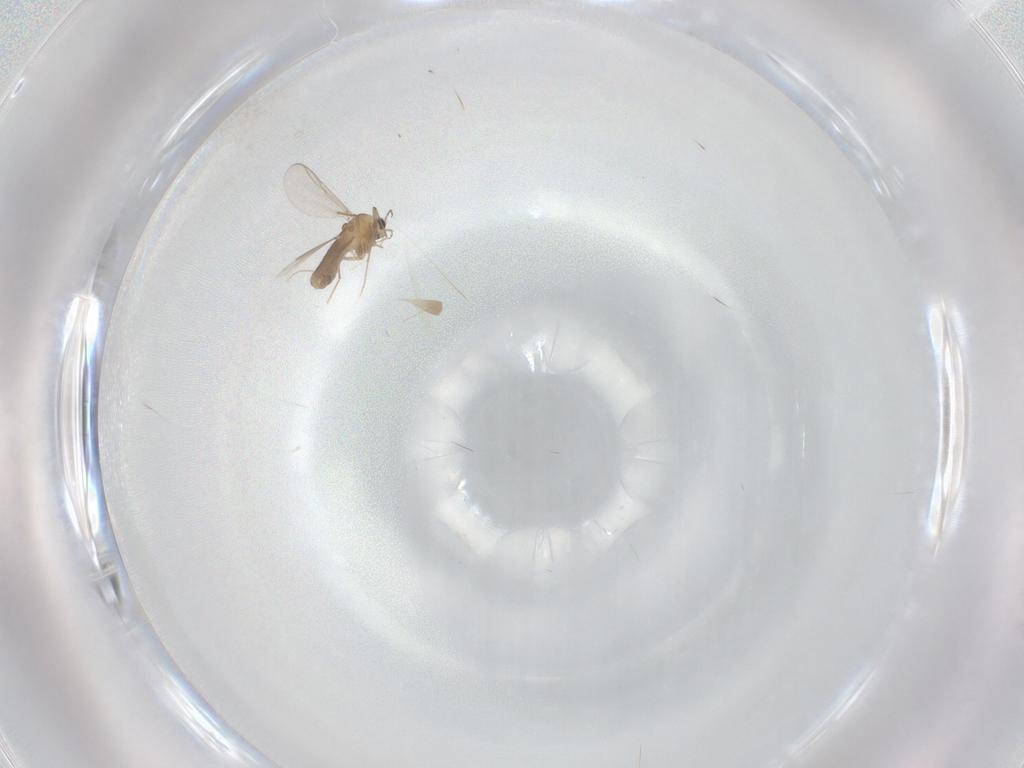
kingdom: Animalia
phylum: Arthropoda
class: Insecta
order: Diptera
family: Chironomidae
